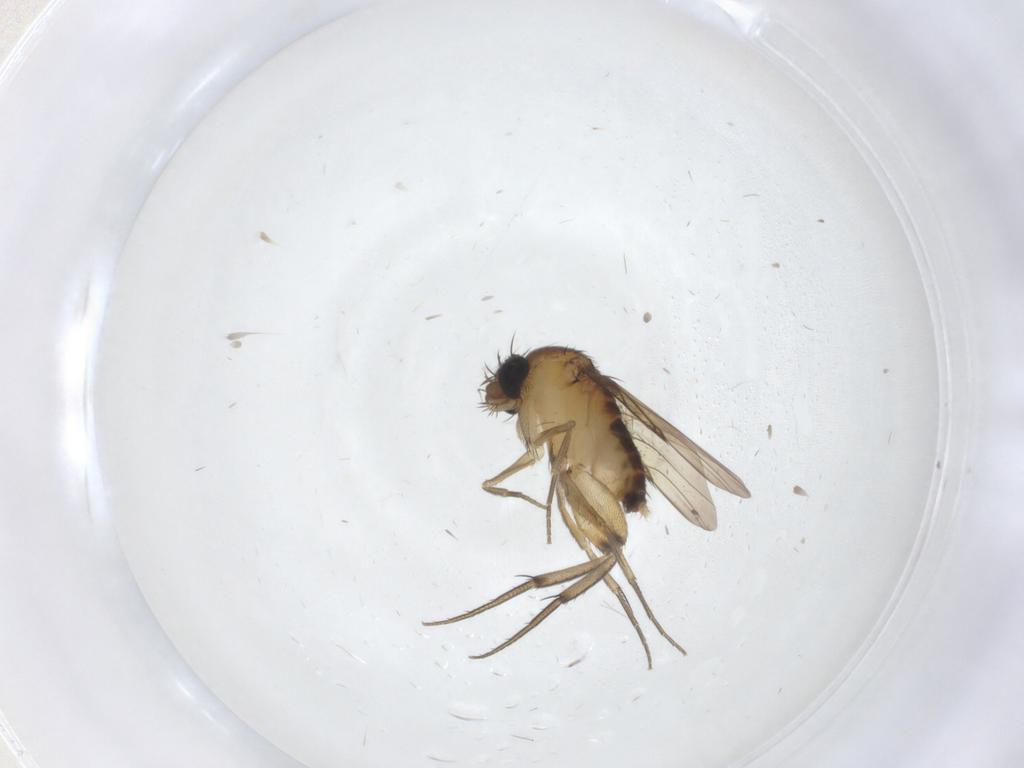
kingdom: Animalia
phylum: Arthropoda
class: Insecta
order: Diptera
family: Phoridae
